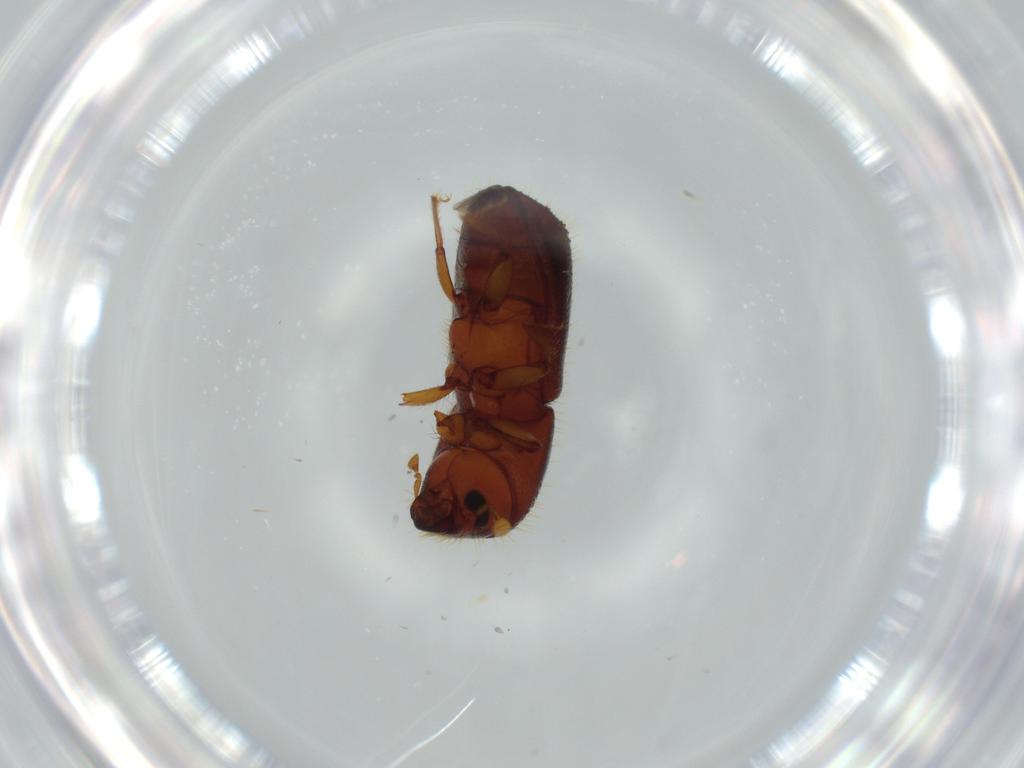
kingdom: Animalia
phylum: Arthropoda
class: Insecta
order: Coleoptera
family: Curculionidae
